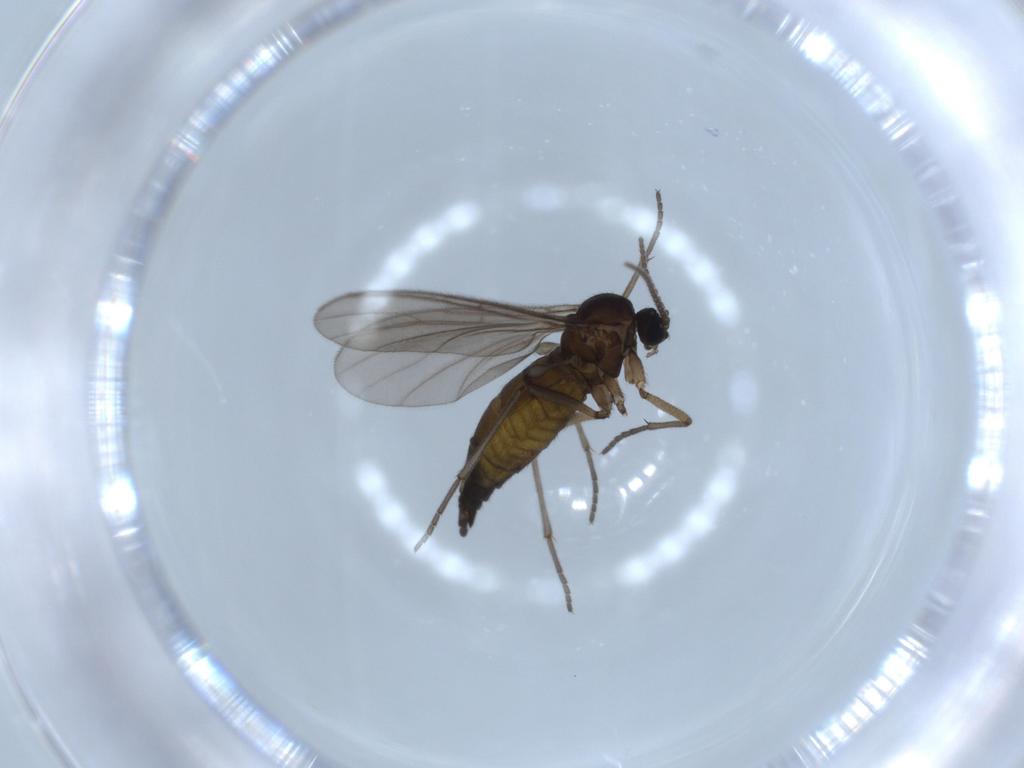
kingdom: Animalia
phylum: Arthropoda
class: Insecta
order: Diptera
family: Sciaridae
